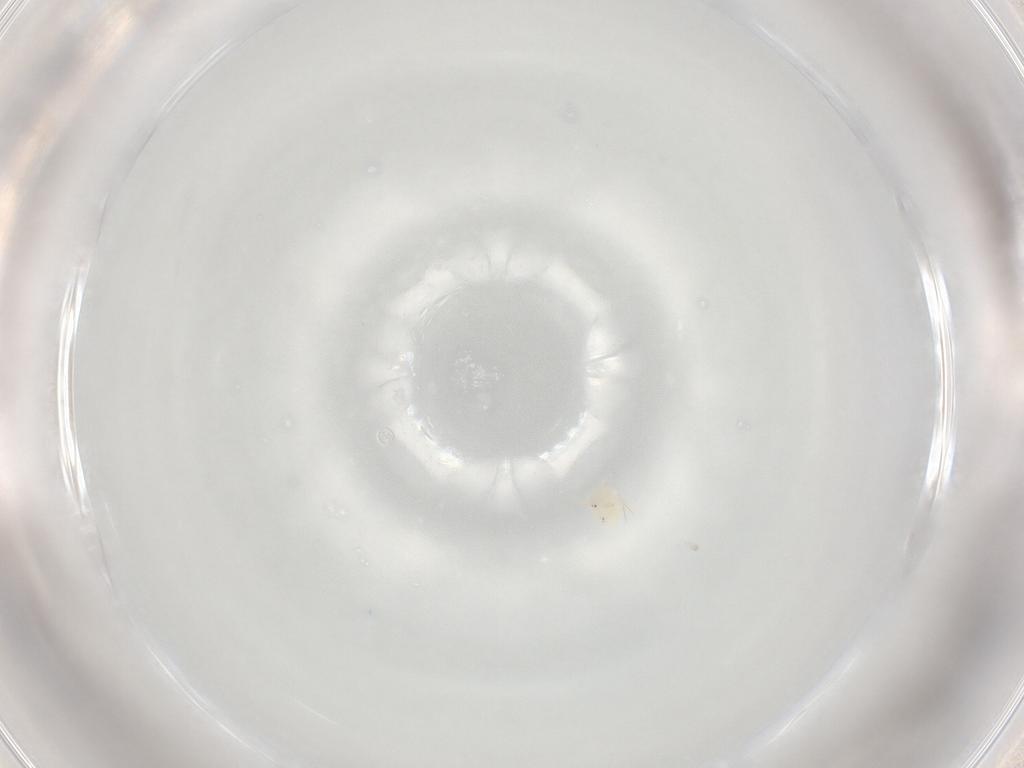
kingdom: Animalia
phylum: Arthropoda
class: Arachnida
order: Trombidiformes
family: Hydryphantidae
